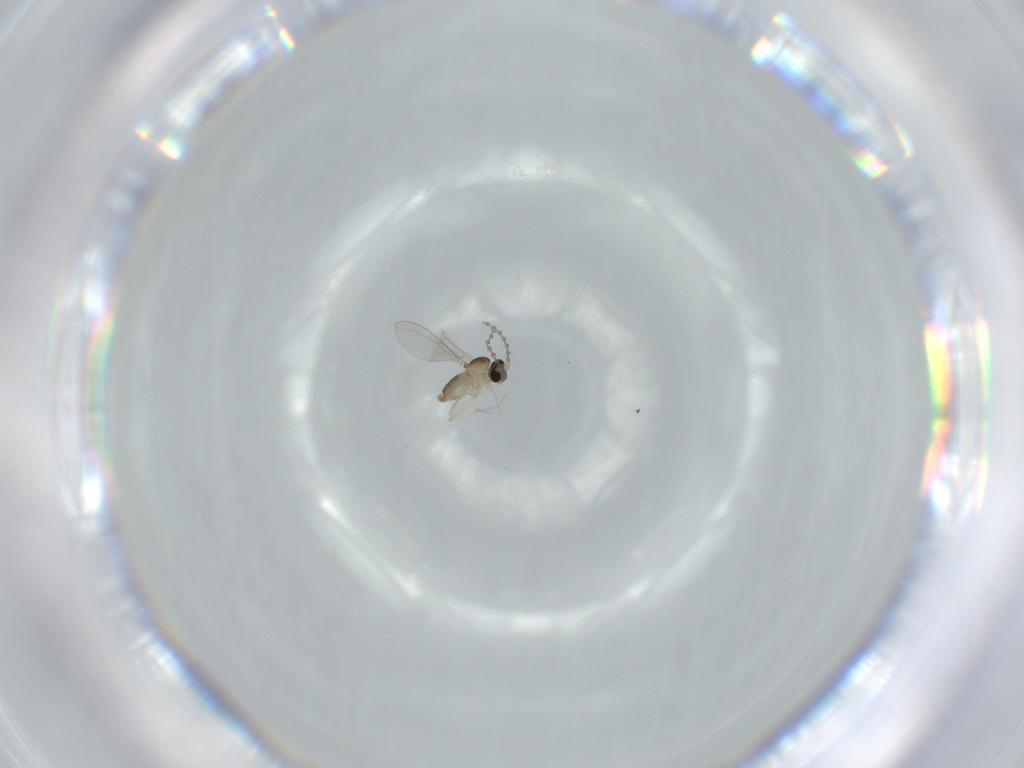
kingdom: Animalia
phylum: Arthropoda
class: Insecta
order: Diptera
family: Cecidomyiidae
